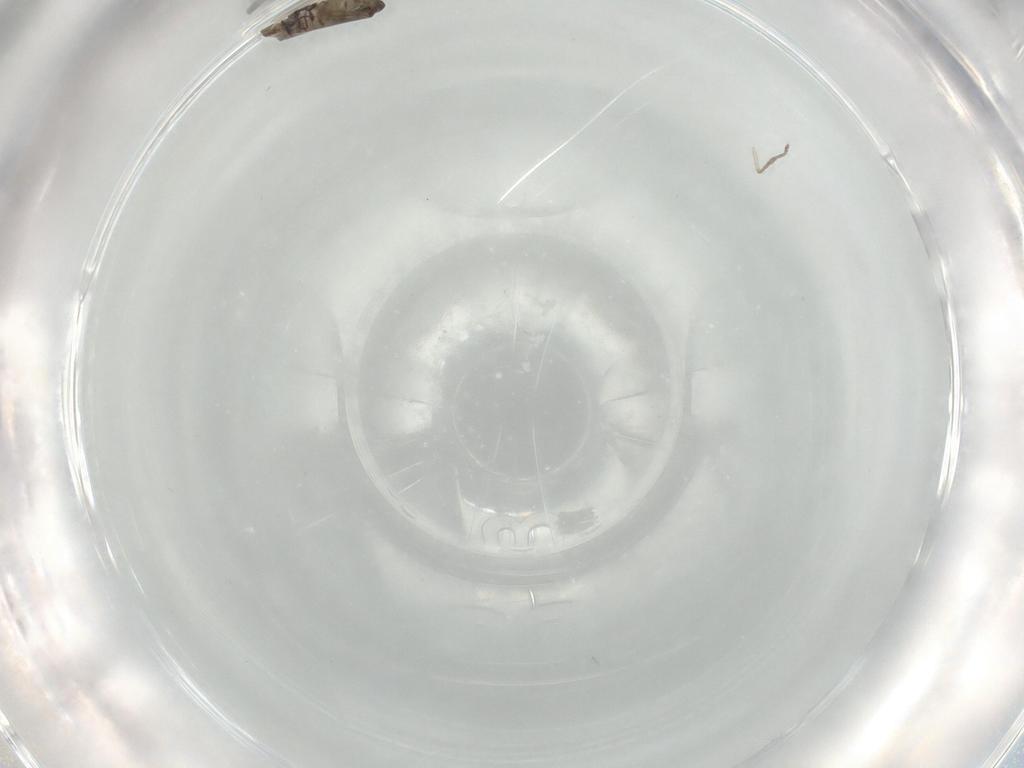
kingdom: Animalia
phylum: Arthropoda
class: Insecta
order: Diptera
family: Psychodidae
